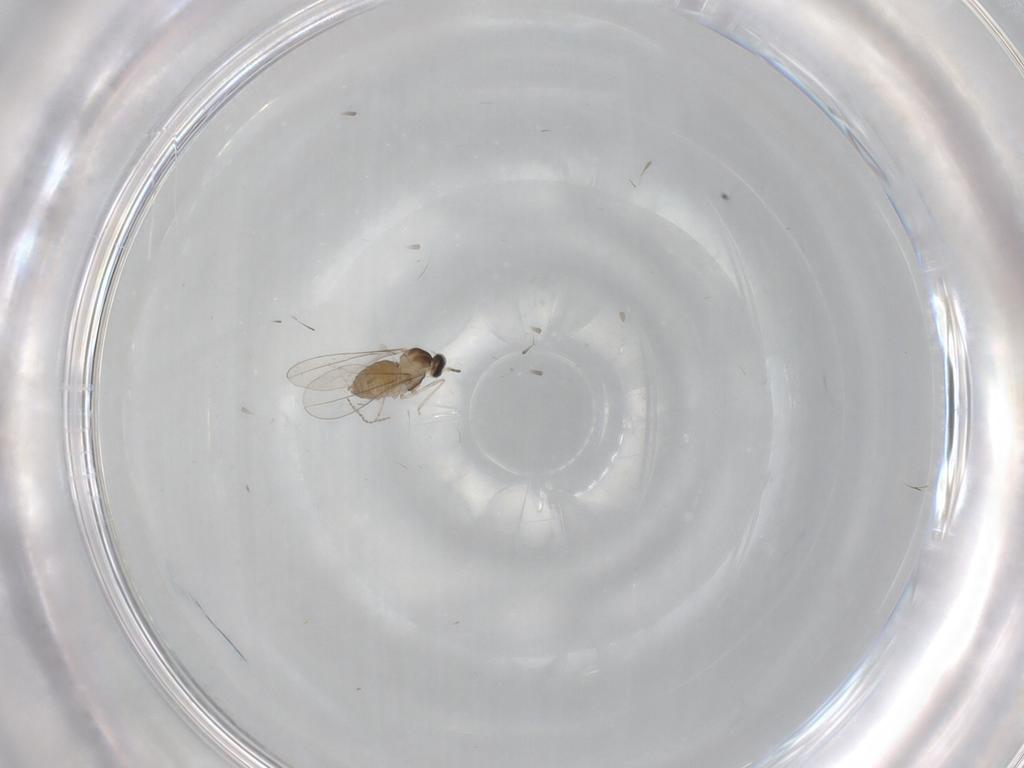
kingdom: Animalia
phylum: Arthropoda
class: Insecta
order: Diptera
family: Cecidomyiidae
